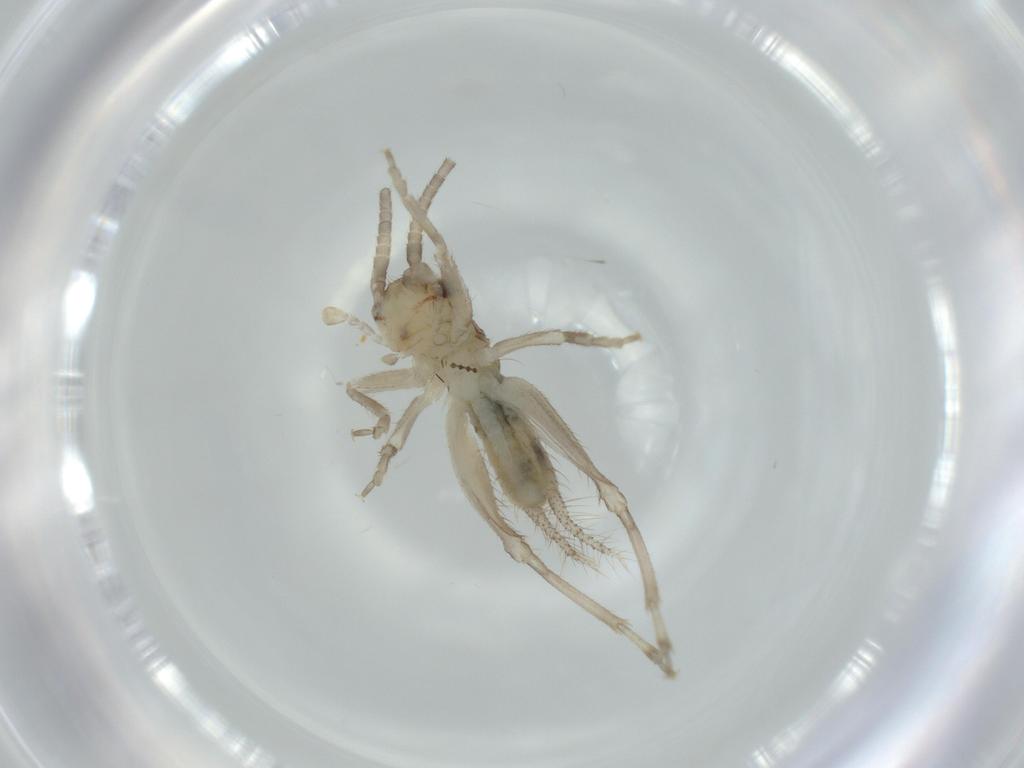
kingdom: Animalia
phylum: Arthropoda
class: Insecta
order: Orthoptera
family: Gryllidae
